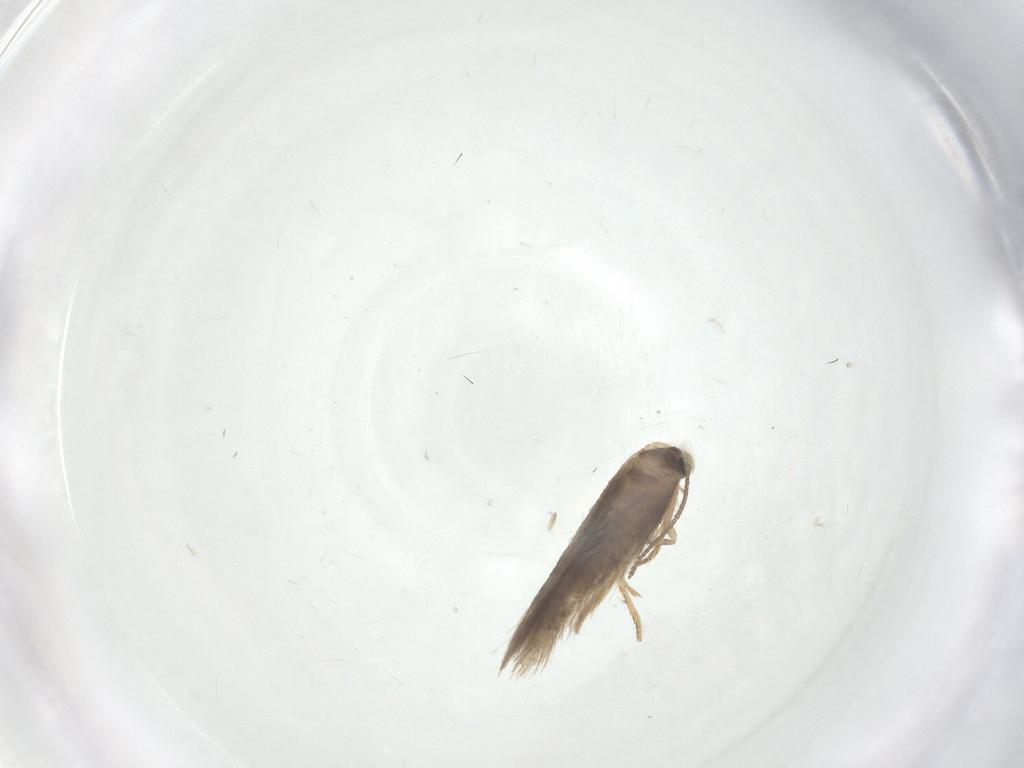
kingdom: Animalia
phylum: Arthropoda
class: Insecta
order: Lepidoptera
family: Nepticulidae
